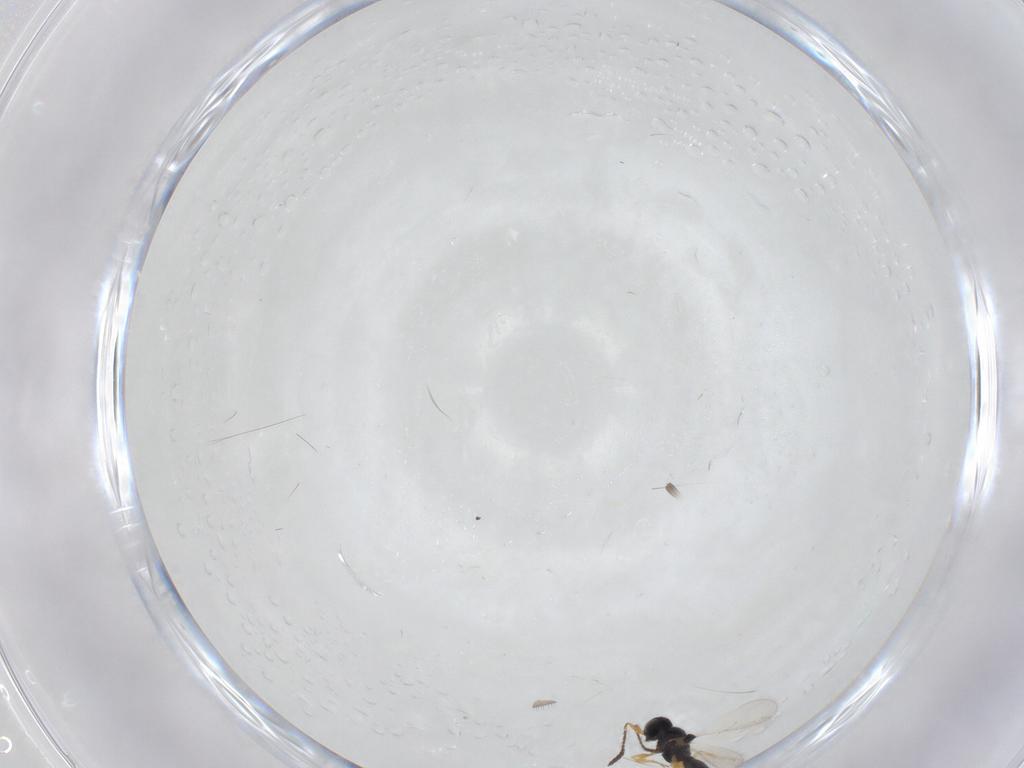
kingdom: Animalia
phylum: Arthropoda
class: Insecta
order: Hymenoptera
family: Scelionidae
